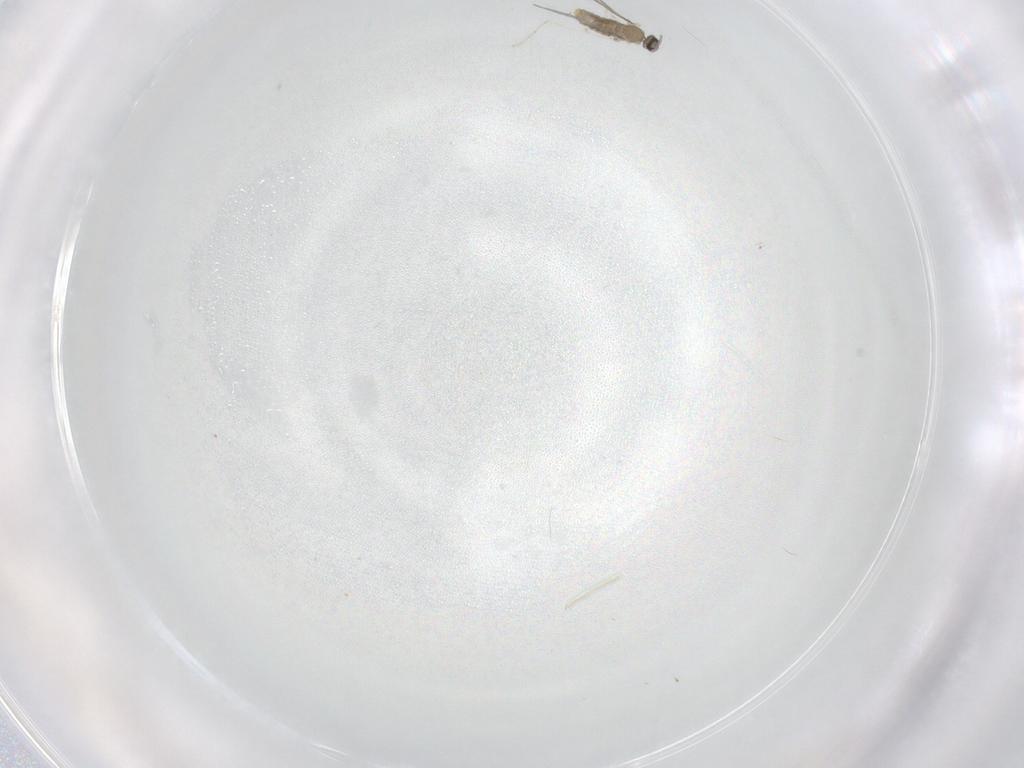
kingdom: Animalia
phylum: Arthropoda
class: Insecta
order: Diptera
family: Cecidomyiidae
